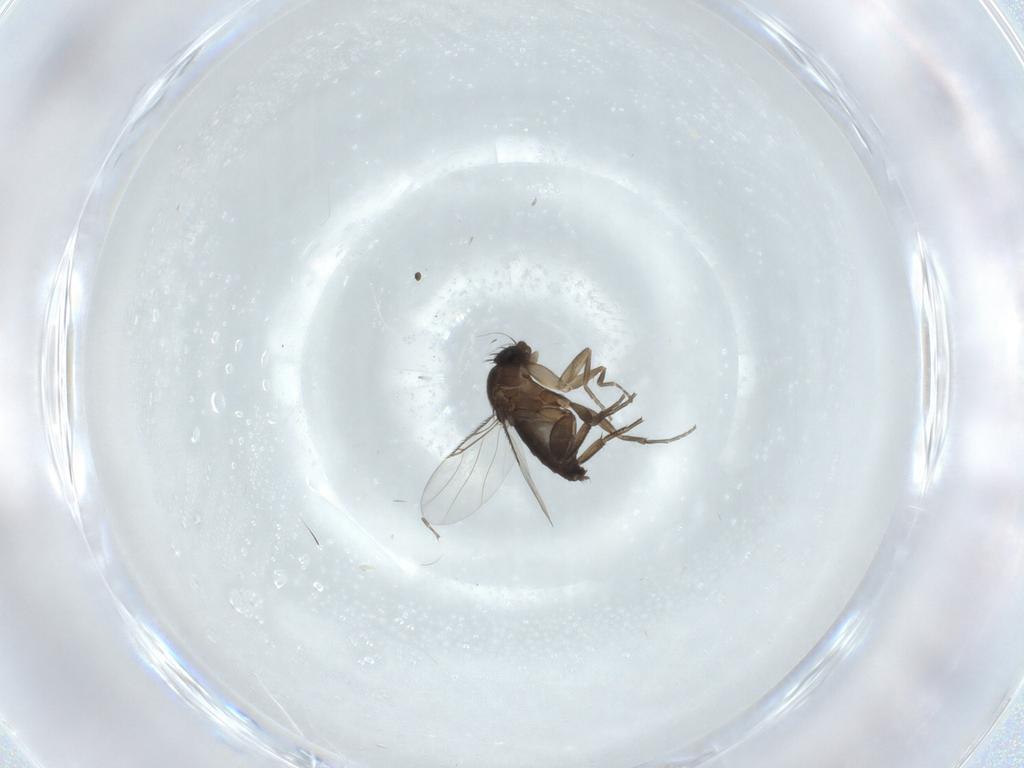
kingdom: Animalia
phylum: Arthropoda
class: Insecta
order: Diptera
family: Phoridae
